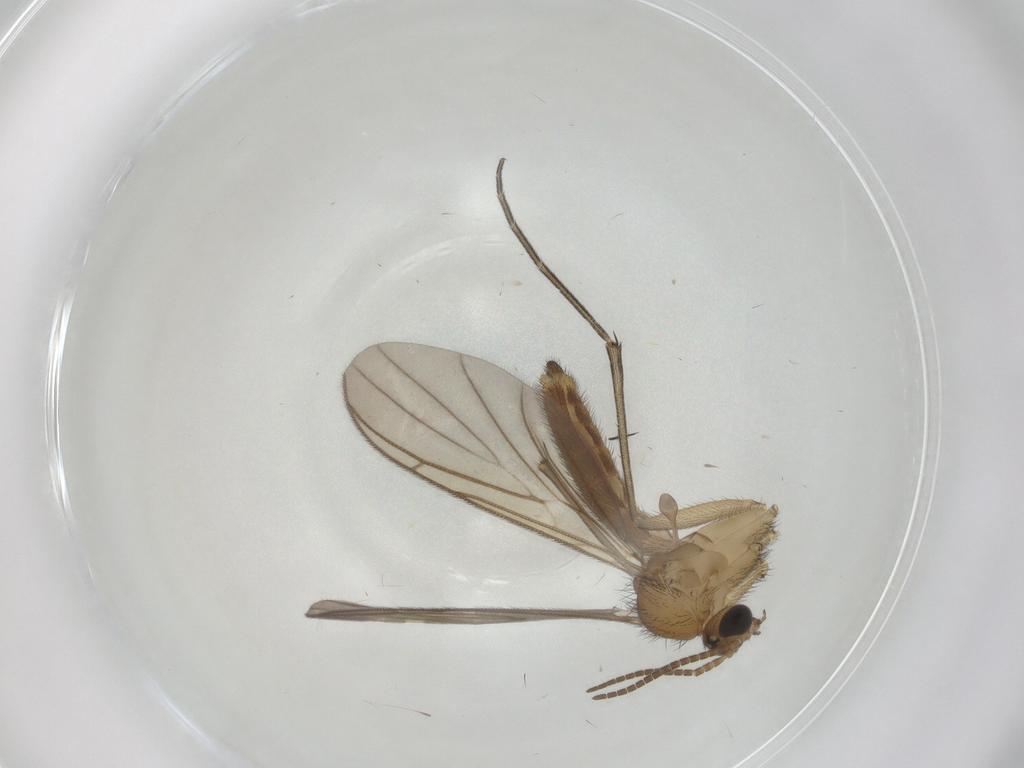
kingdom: Animalia
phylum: Arthropoda
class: Insecta
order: Diptera
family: Keroplatidae
